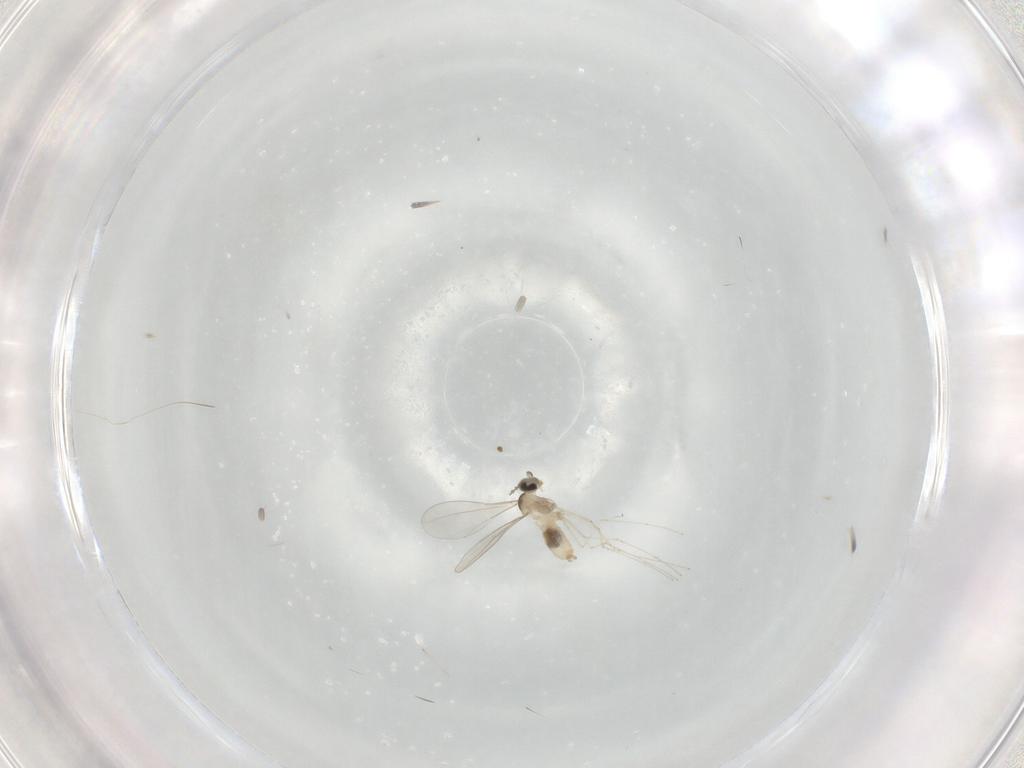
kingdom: Animalia
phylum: Arthropoda
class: Insecta
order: Diptera
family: Cecidomyiidae
